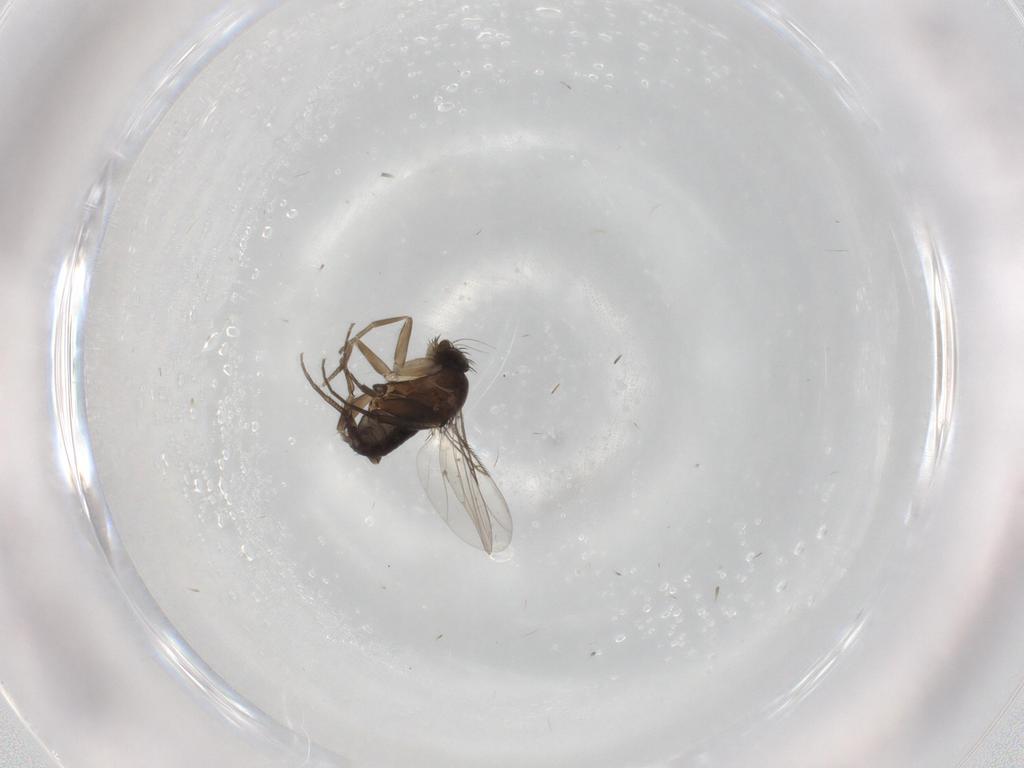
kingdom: Animalia
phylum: Arthropoda
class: Insecta
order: Diptera
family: Phoridae
